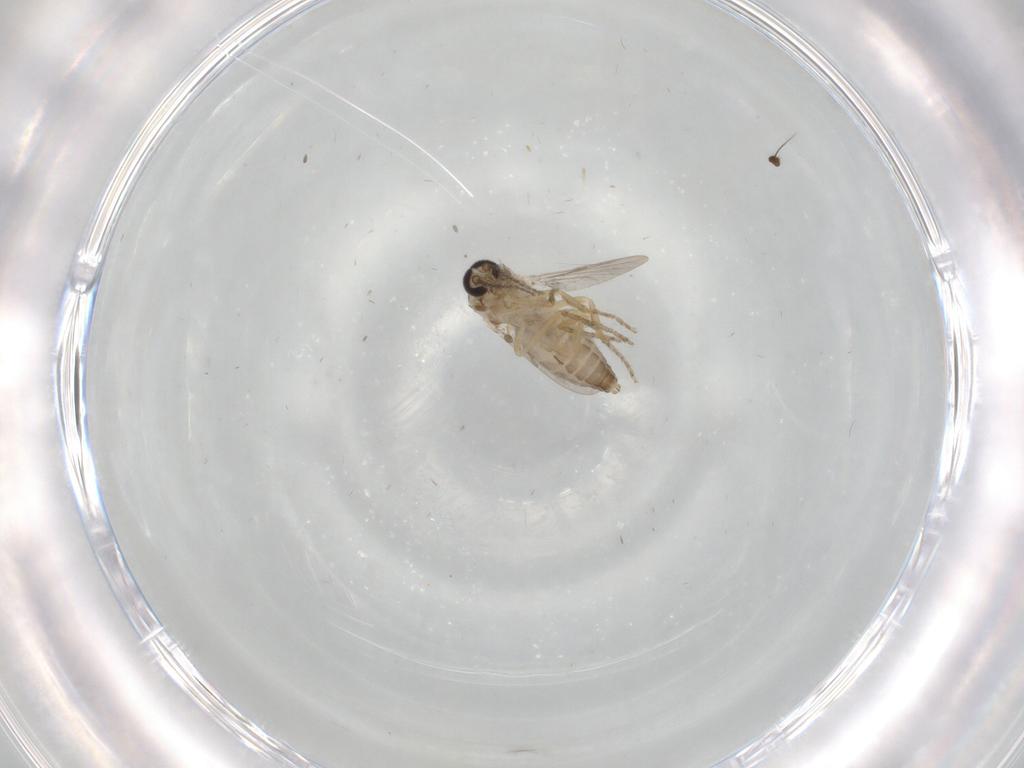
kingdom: Animalia
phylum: Arthropoda
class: Insecta
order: Diptera
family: Ceratopogonidae
